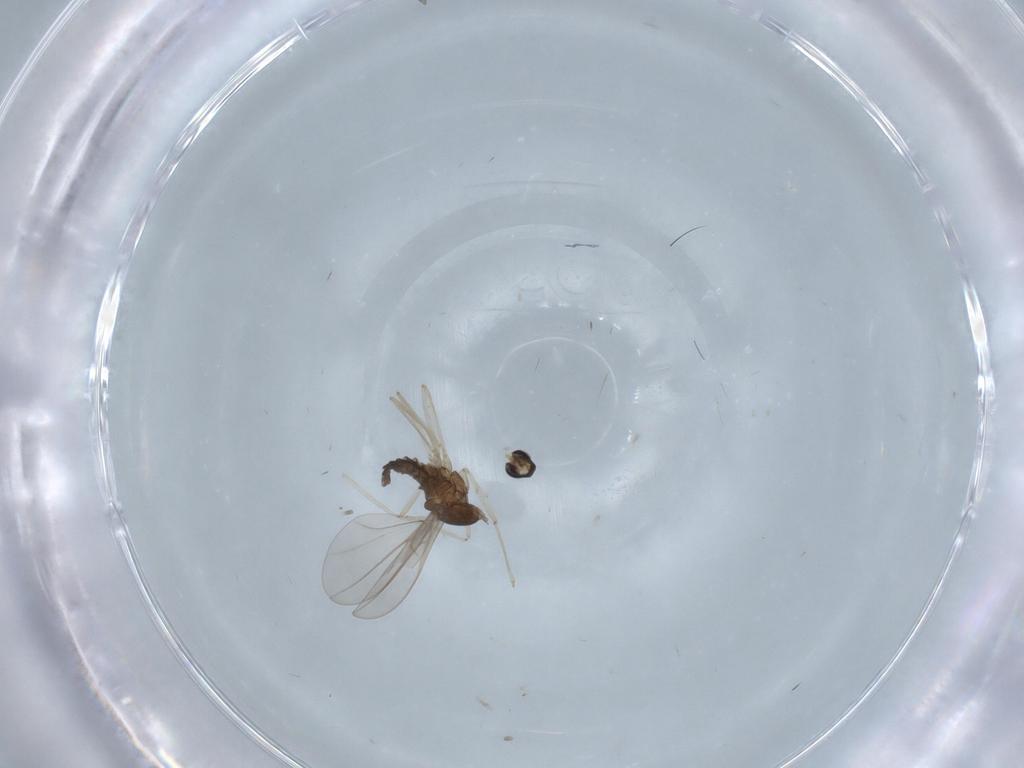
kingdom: Animalia
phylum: Arthropoda
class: Insecta
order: Diptera
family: Cecidomyiidae
